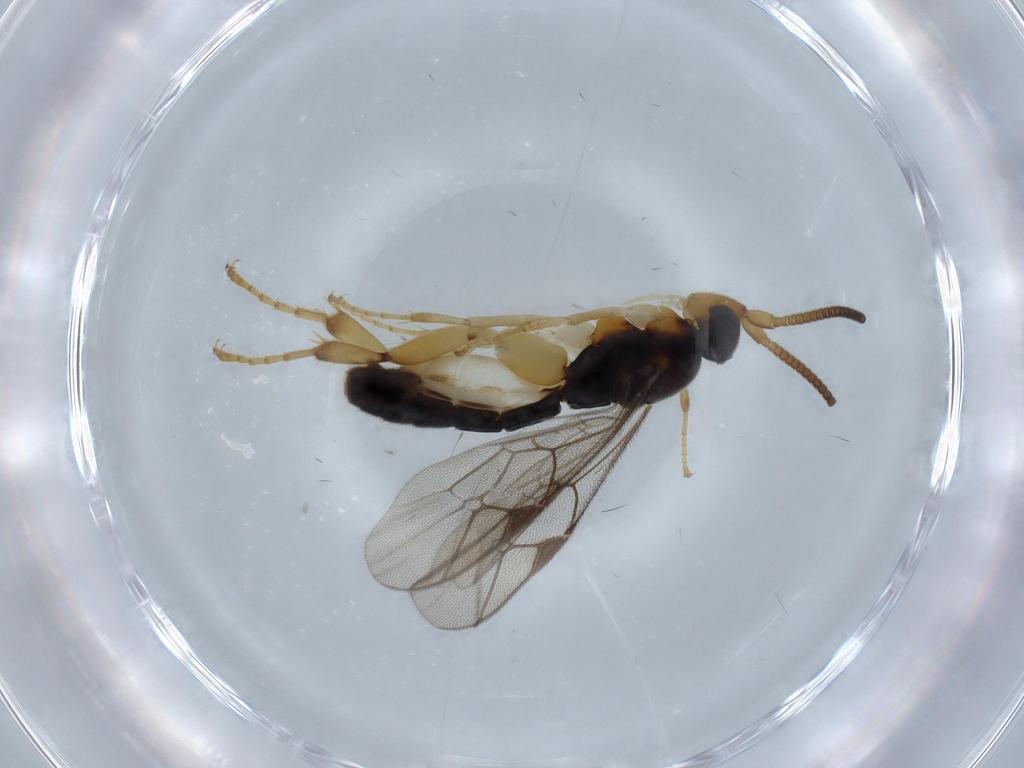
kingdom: Animalia
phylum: Arthropoda
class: Insecta
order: Hymenoptera
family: Ichneumonidae
